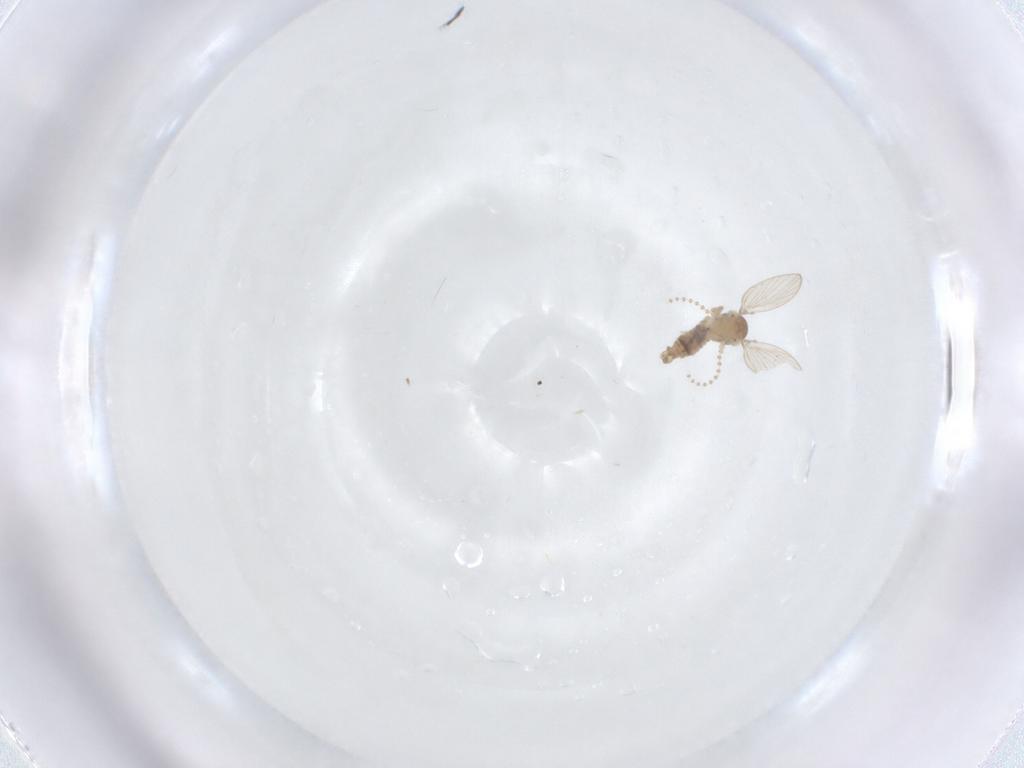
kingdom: Animalia
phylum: Arthropoda
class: Insecta
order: Diptera
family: Psychodidae
